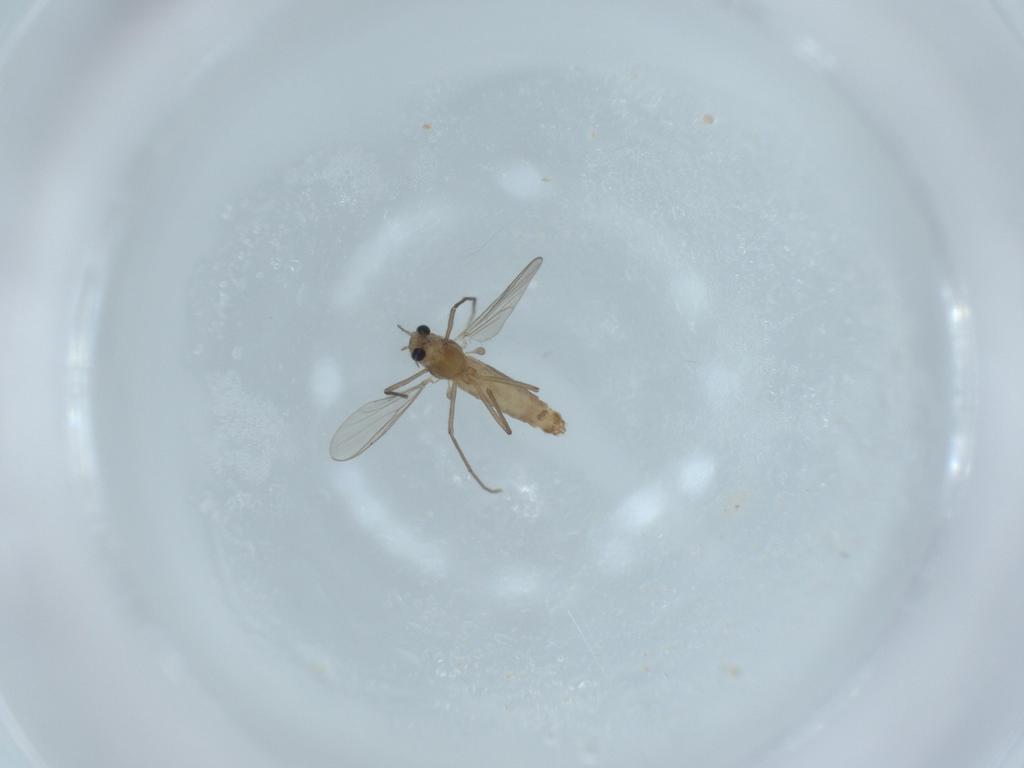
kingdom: Animalia
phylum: Arthropoda
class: Insecta
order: Diptera
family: Chironomidae
